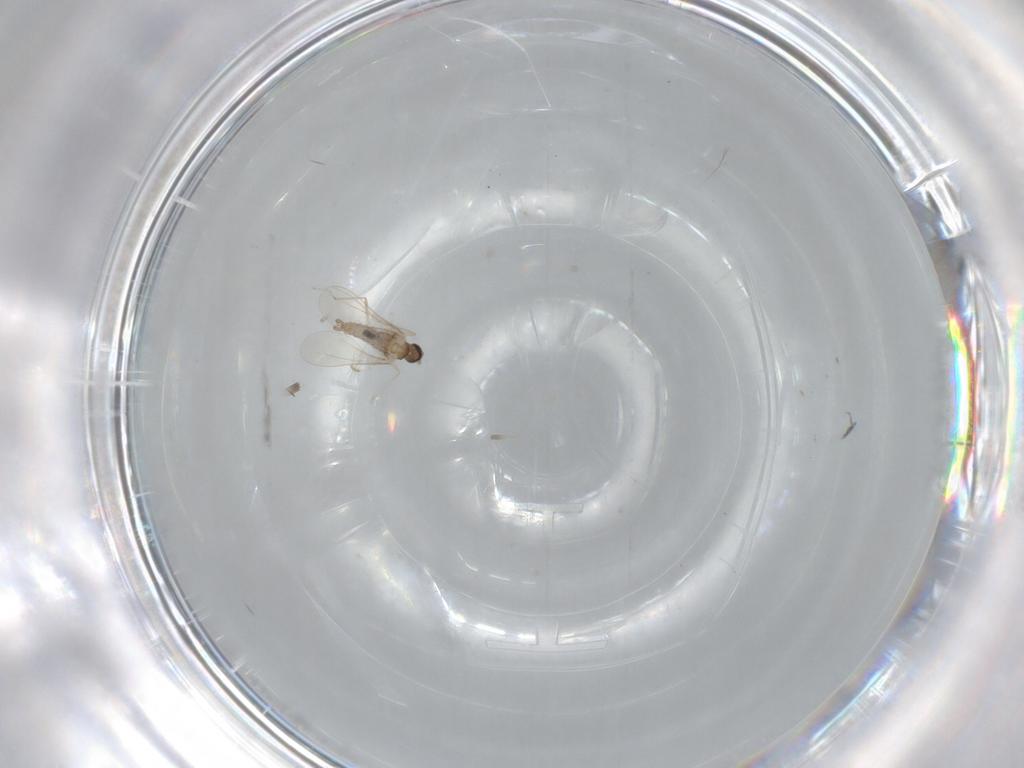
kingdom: Animalia
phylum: Arthropoda
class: Insecta
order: Diptera
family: Cecidomyiidae
